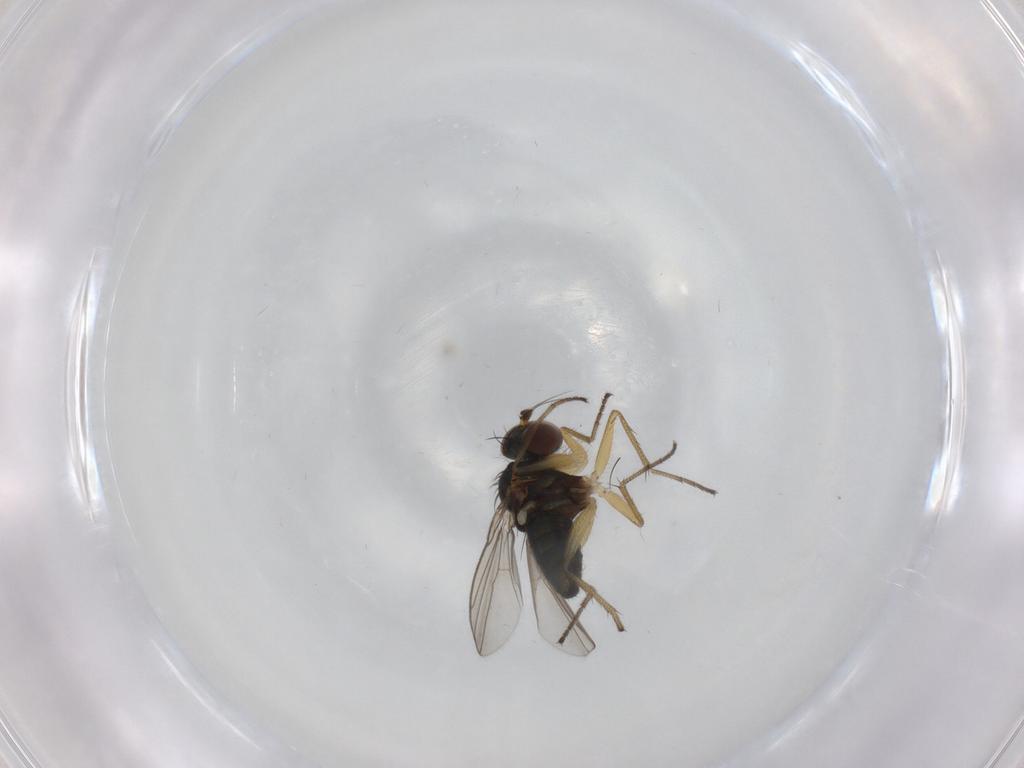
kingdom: Animalia
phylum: Arthropoda
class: Insecta
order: Diptera
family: Dolichopodidae
